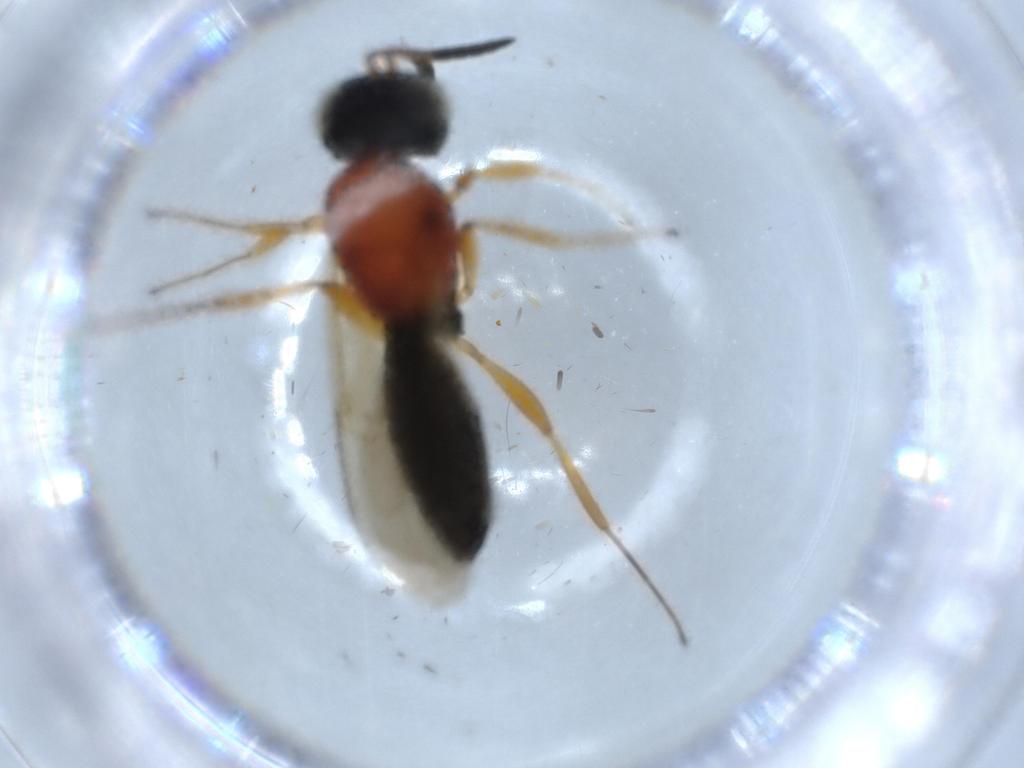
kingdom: Animalia
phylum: Arthropoda
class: Insecta
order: Hymenoptera
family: Scelionidae
